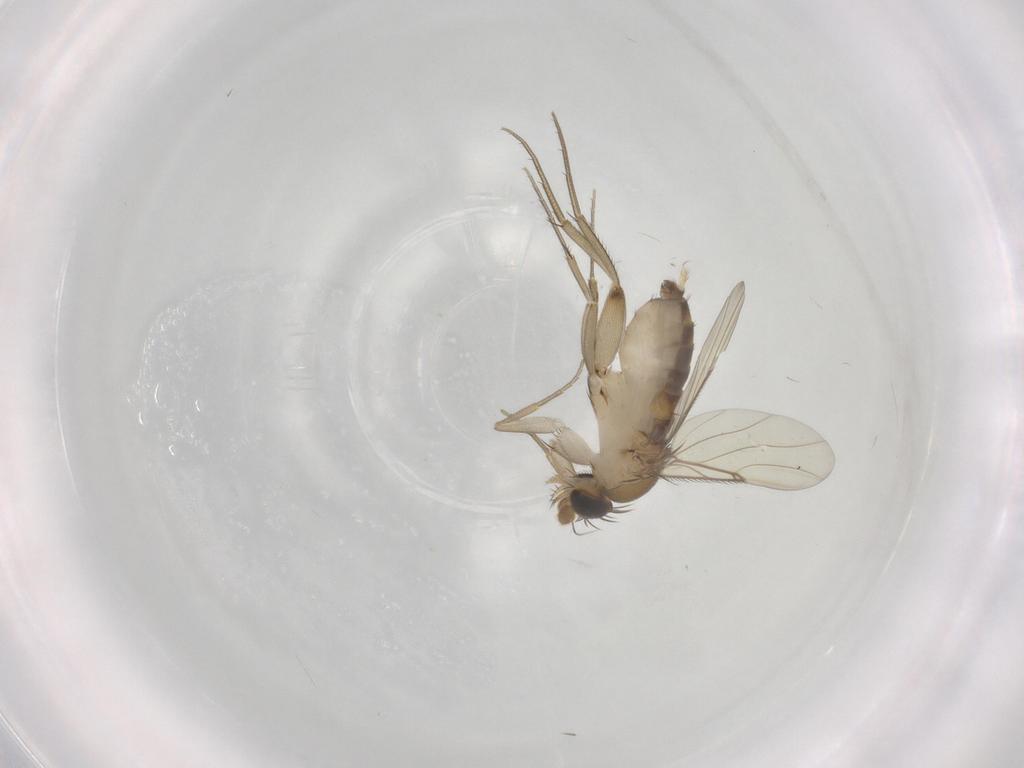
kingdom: Animalia
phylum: Arthropoda
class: Insecta
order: Diptera
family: Phoridae
